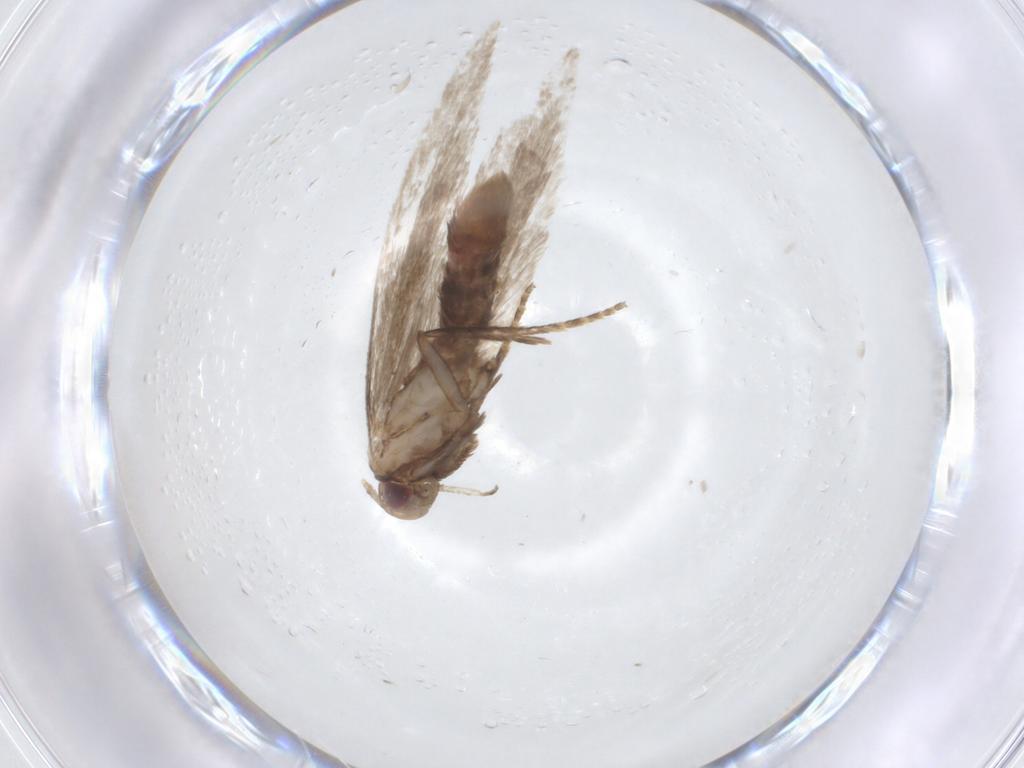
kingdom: Animalia
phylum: Arthropoda
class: Insecta
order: Lepidoptera
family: Gelechiidae
